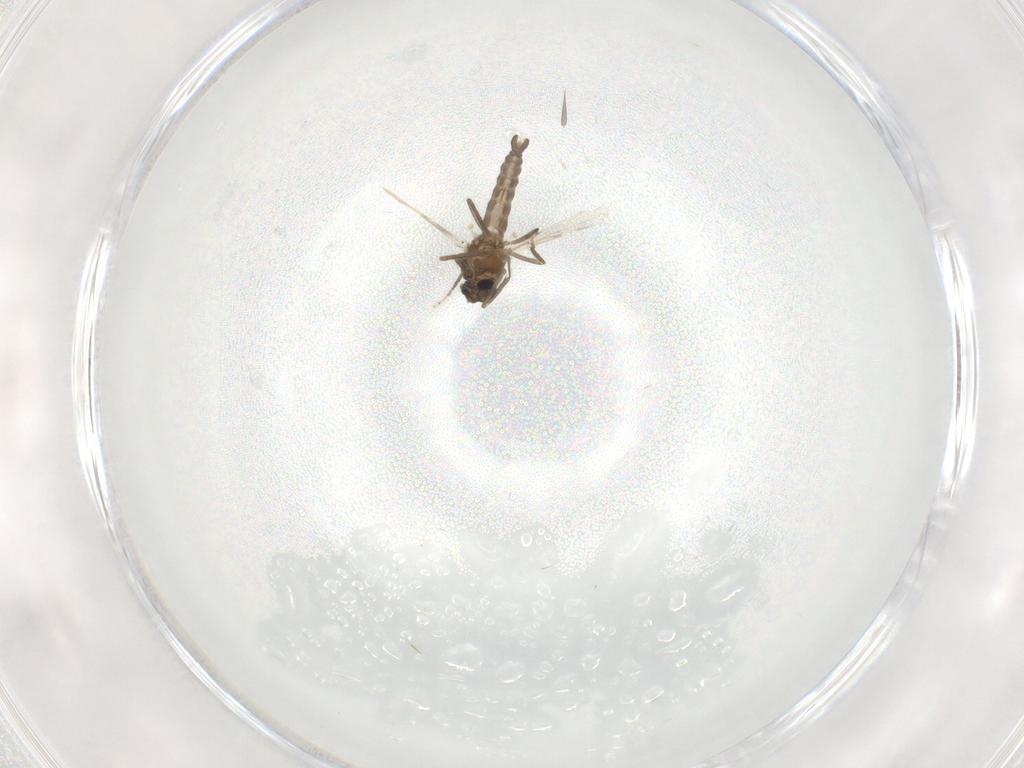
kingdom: Animalia
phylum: Arthropoda
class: Insecta
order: Diptera
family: Ceratopogonidae
